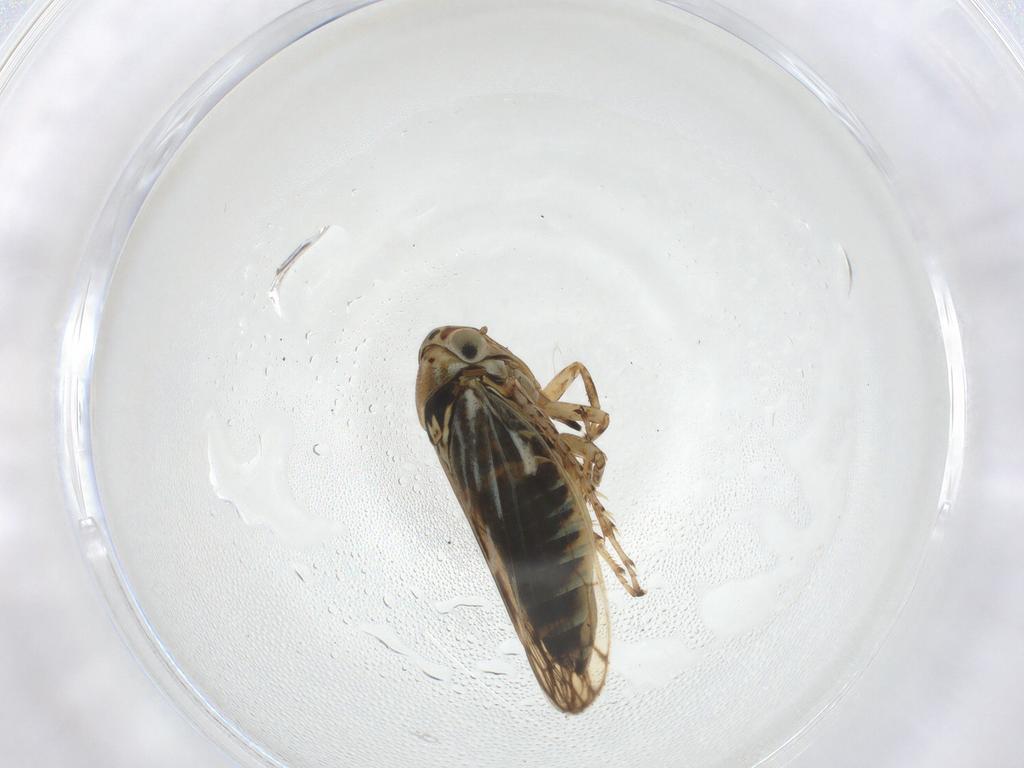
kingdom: Animalia
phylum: Arthropoda
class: Insecta
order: Hemiptera
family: Cicadellidae
